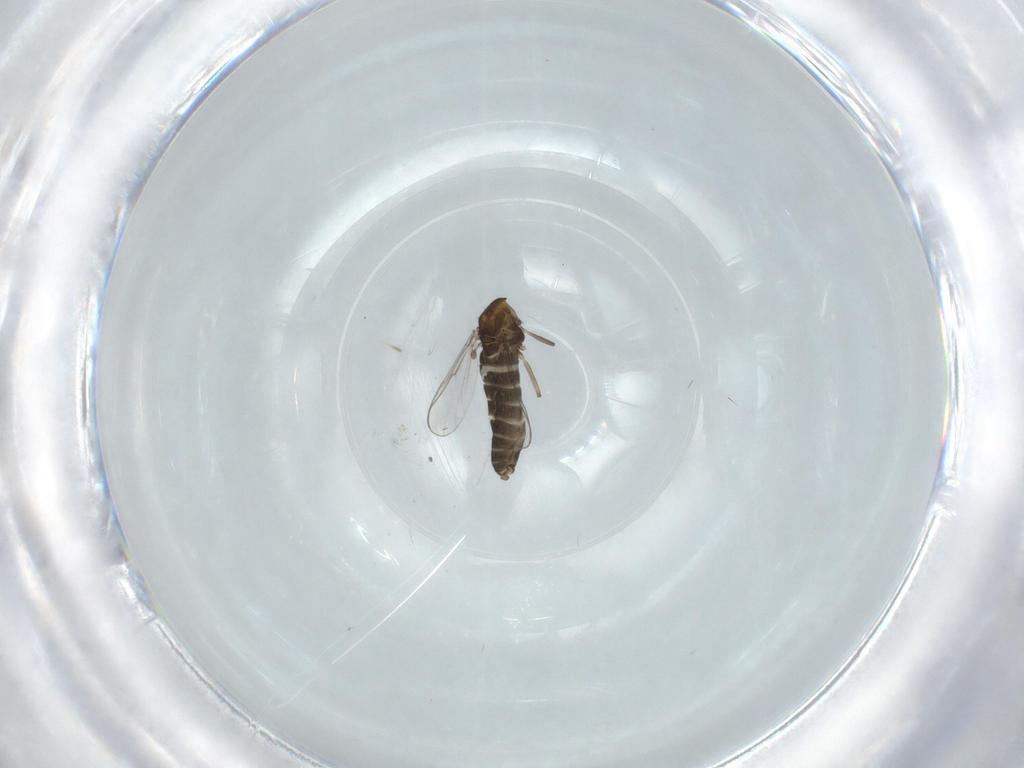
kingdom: Animalia
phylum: Arthropoda
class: Insecta
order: Diptera
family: Chironomidae
